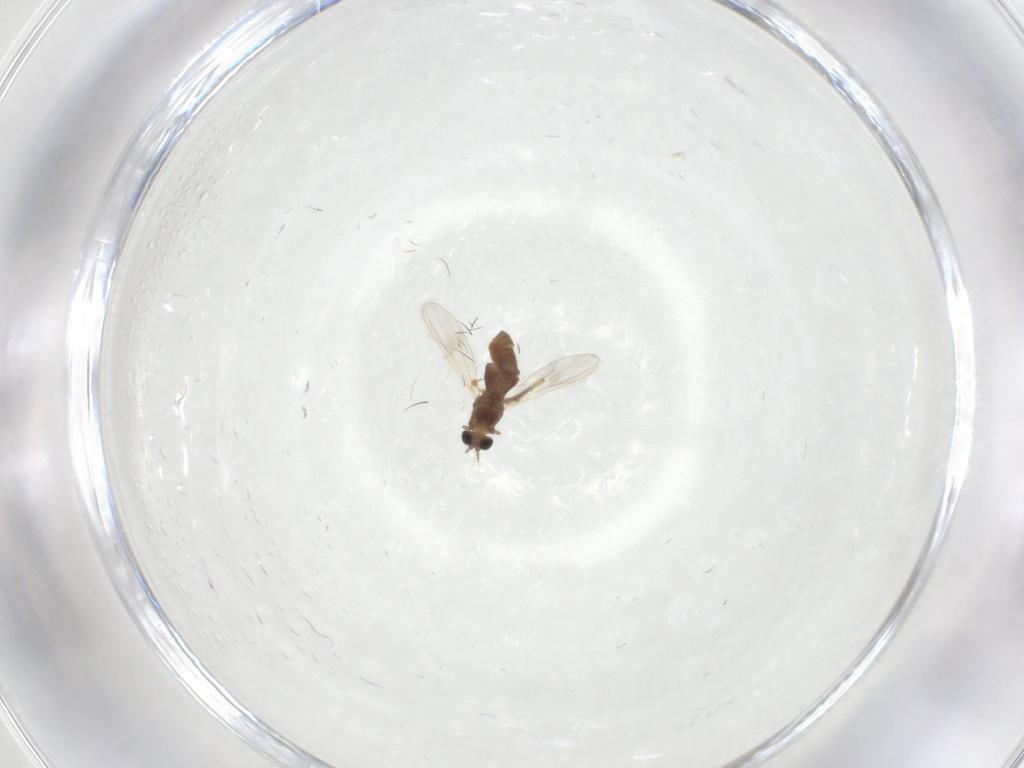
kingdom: Animalia
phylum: Arthropoda
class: Insecta
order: Diptera
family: Chironomidae
